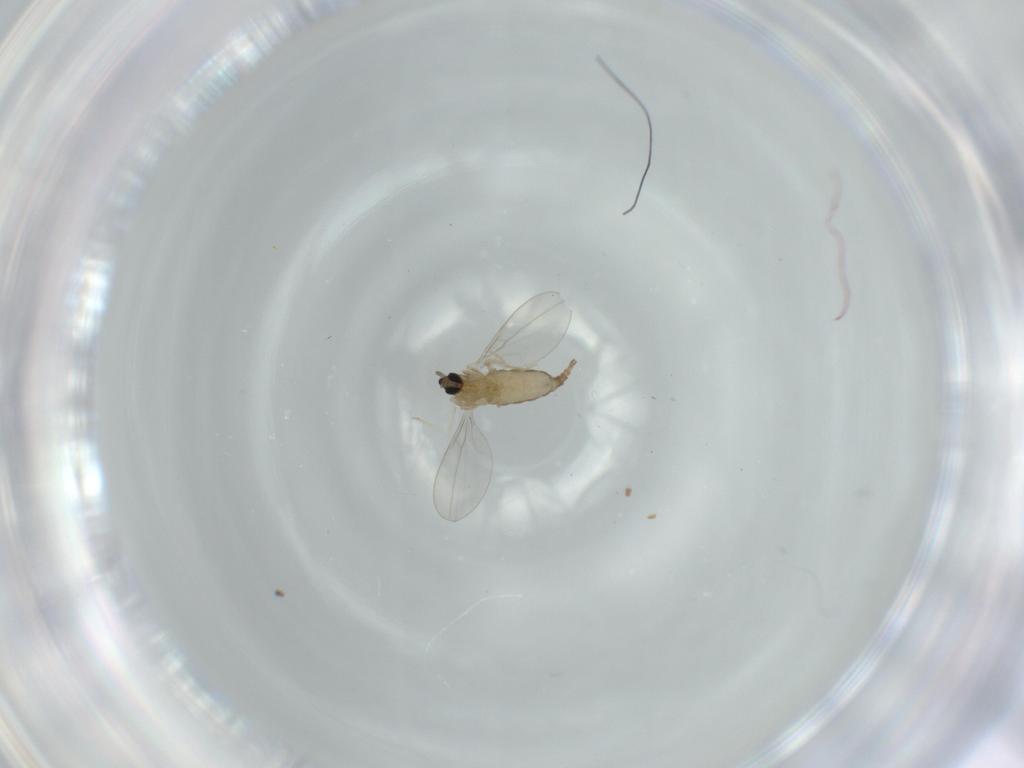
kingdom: Animalia
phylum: Arthropoda
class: Insecta
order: Diptera
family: Cecidomyiidae
